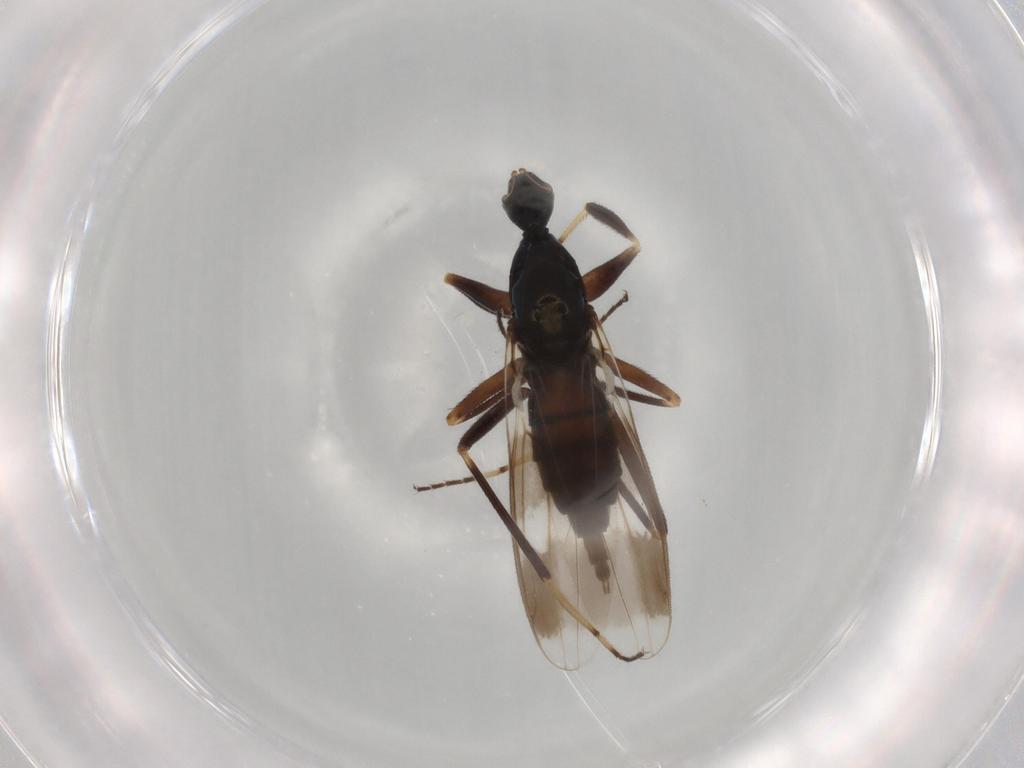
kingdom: Animalia
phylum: Arthropoda
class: Insecta
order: Diptera
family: Hybotidae
